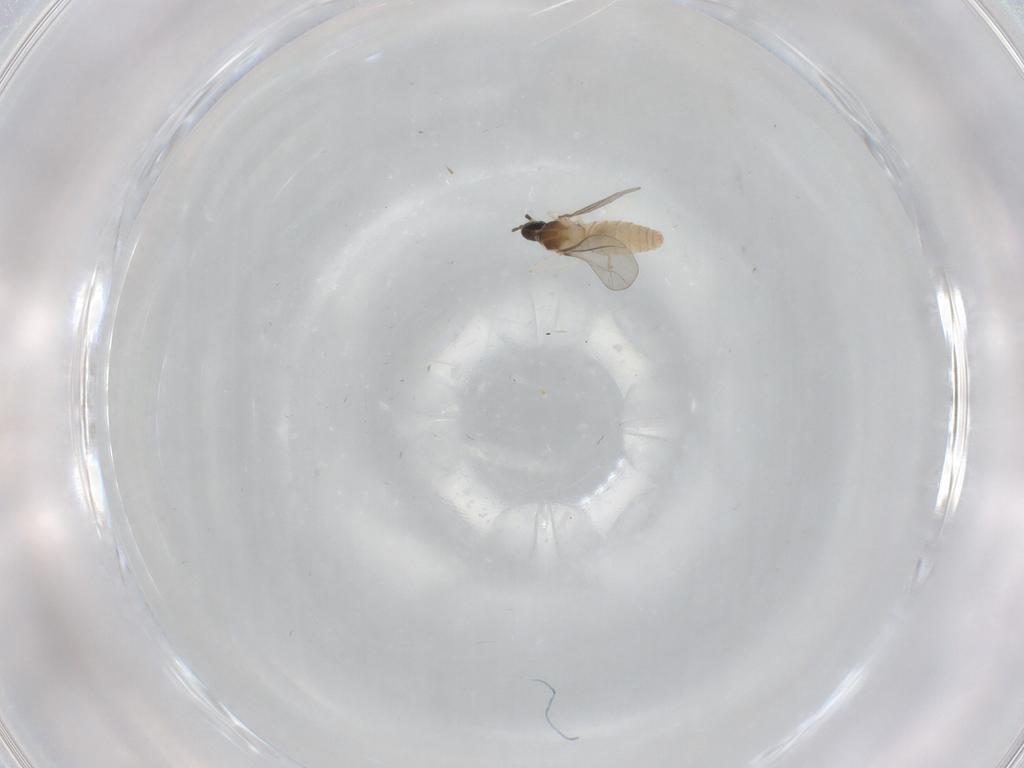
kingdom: Animalia
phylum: Arthropoda
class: Insecta
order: Diptera
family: Cecidomyiidae
